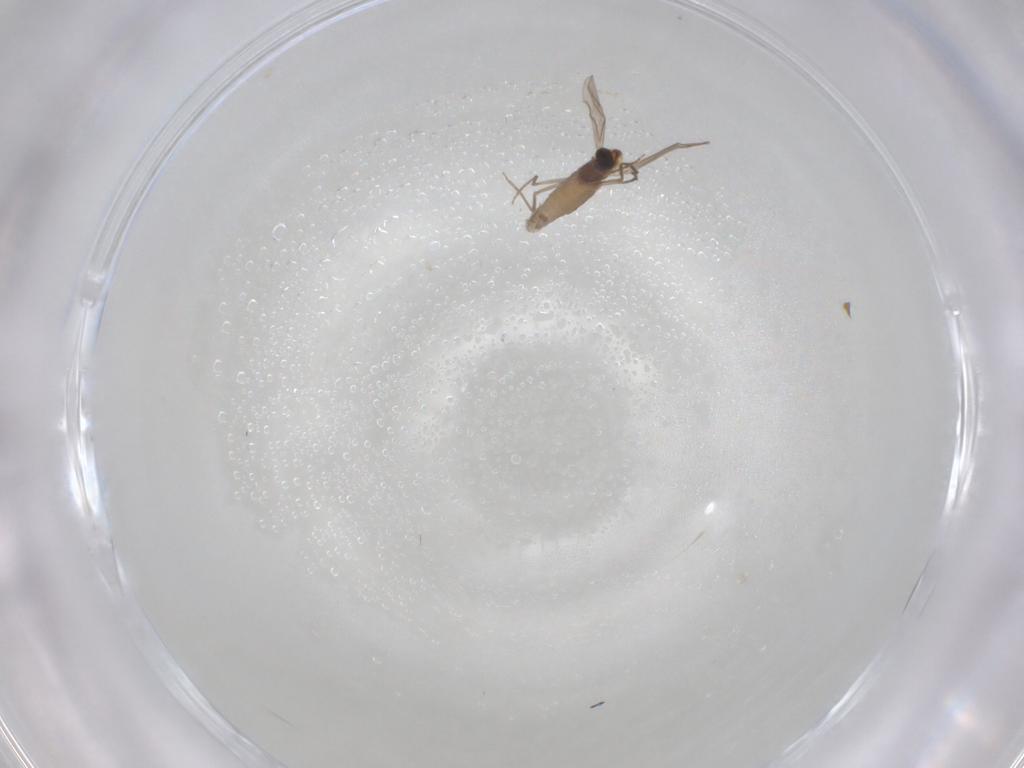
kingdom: Animalia
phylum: Arthropoda
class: Insecta
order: Diptera
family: Chironomidae
